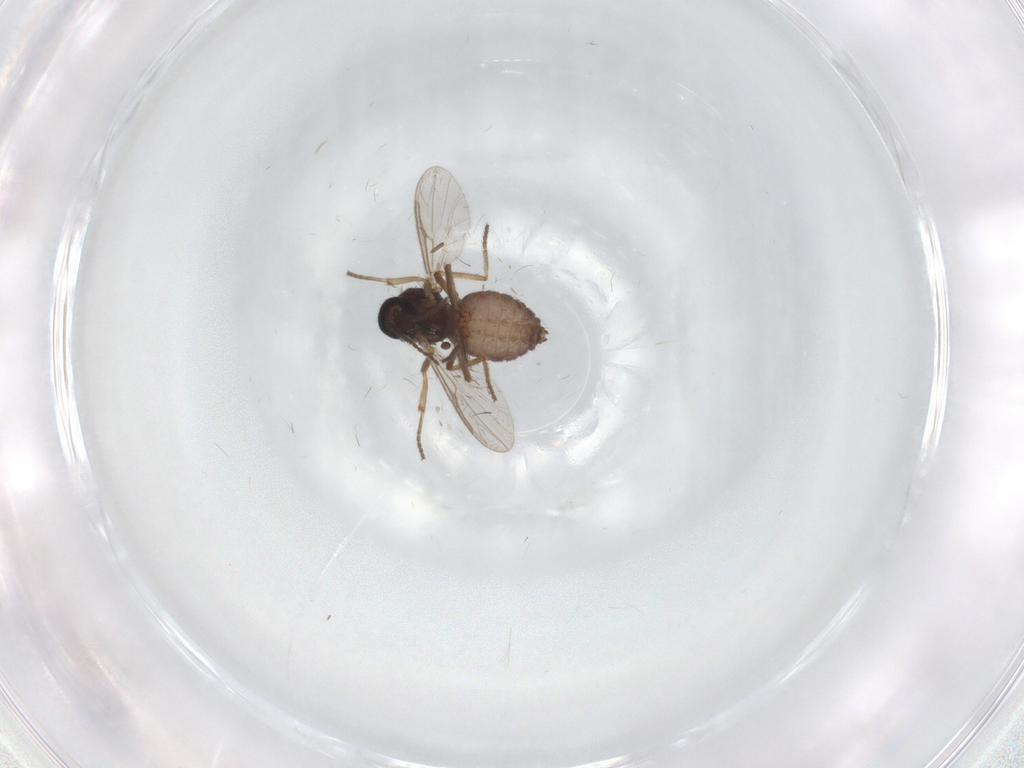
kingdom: Animalia
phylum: Arthropoda
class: Insecta
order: Diptera
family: Ceratopogonidae
